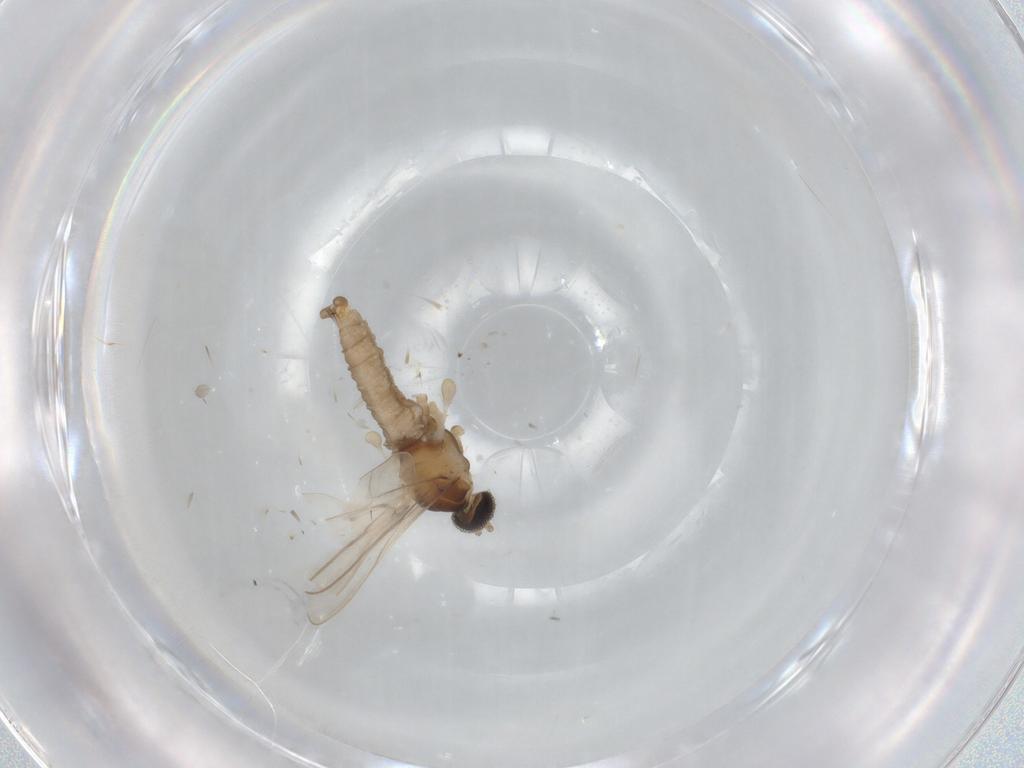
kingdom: Animalia
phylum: Arthropoda
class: Insecta
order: Diptera
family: Cecidomyiidae
